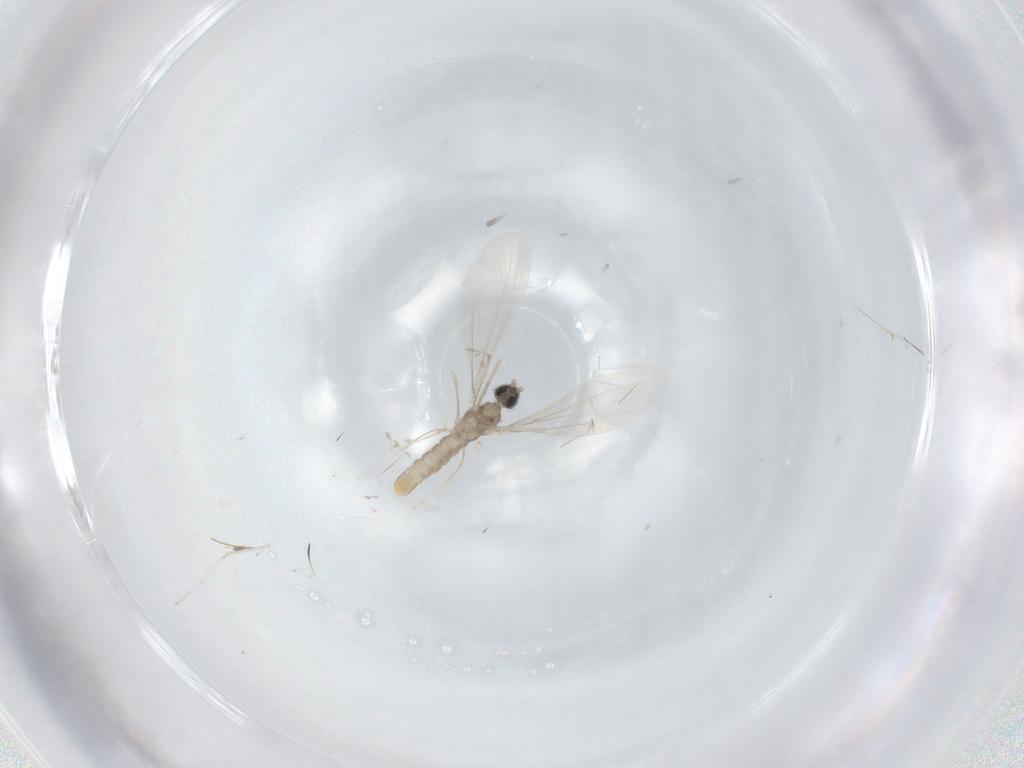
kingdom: Animalia
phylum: Arthropoda
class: Insecta
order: Diptera
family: Cecidomyiidae
